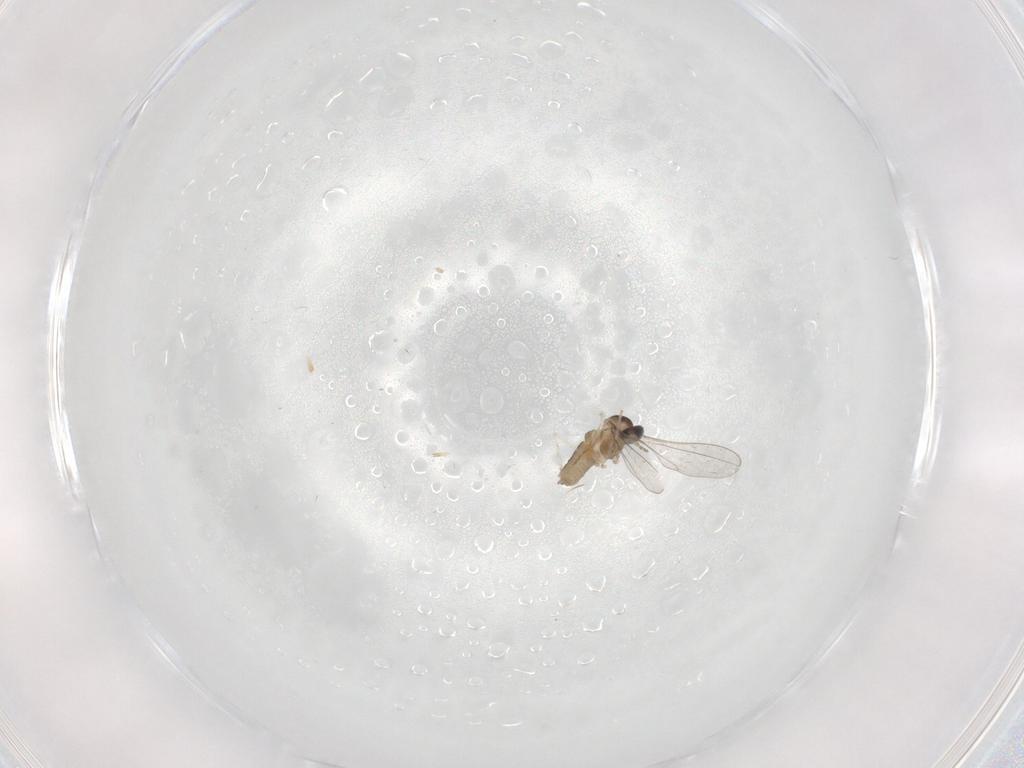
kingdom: Animalia
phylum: Arthropoda
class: Insecta
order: Diptera
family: Cecidomyiidae
